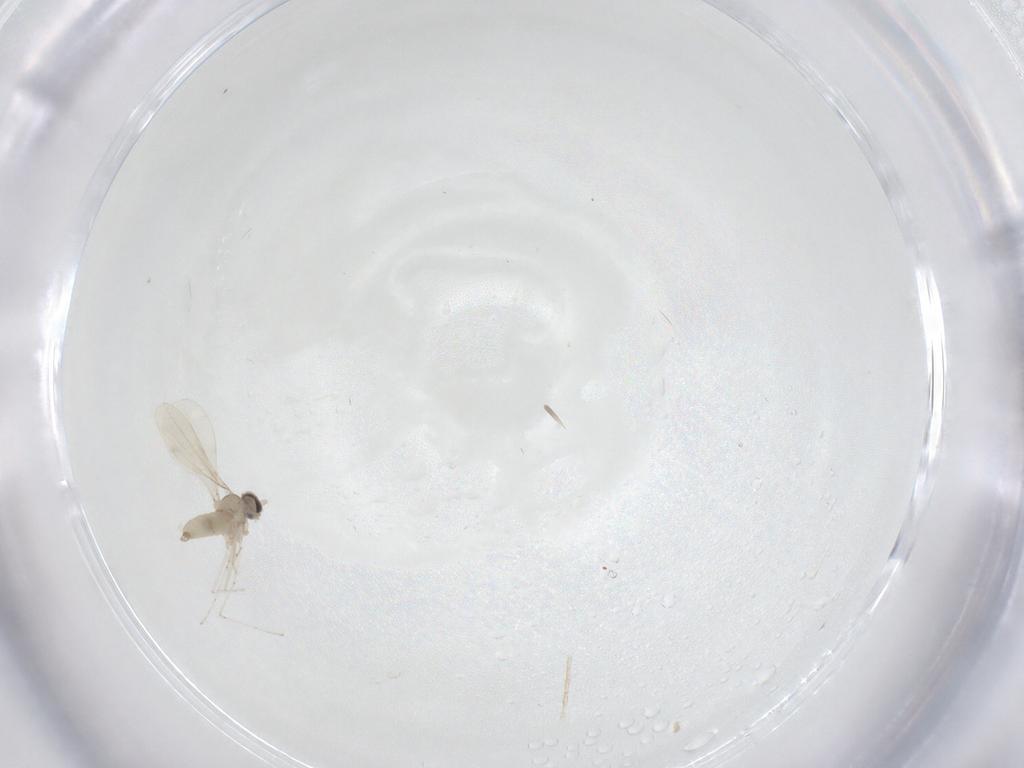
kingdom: Animalia
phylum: Arthropoda
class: Insecta
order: Diptera
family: Cecidomyiidae
